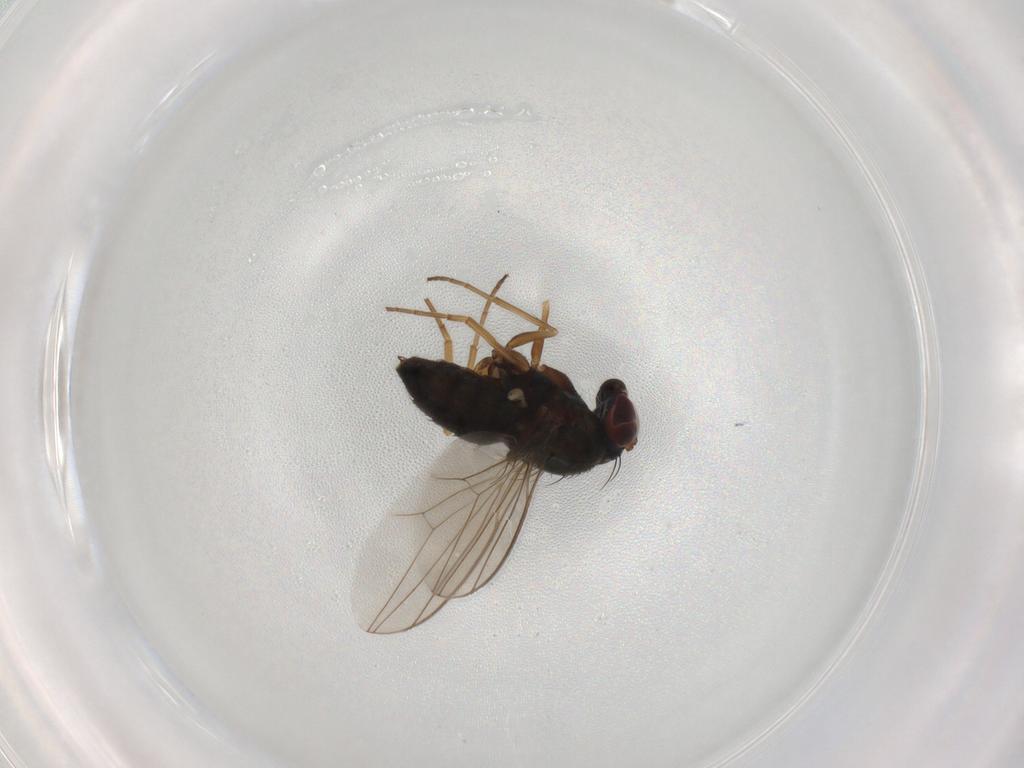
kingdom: Animalia
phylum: Arthropoda
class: Insecta
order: Diptera
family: Dolichopodidae
